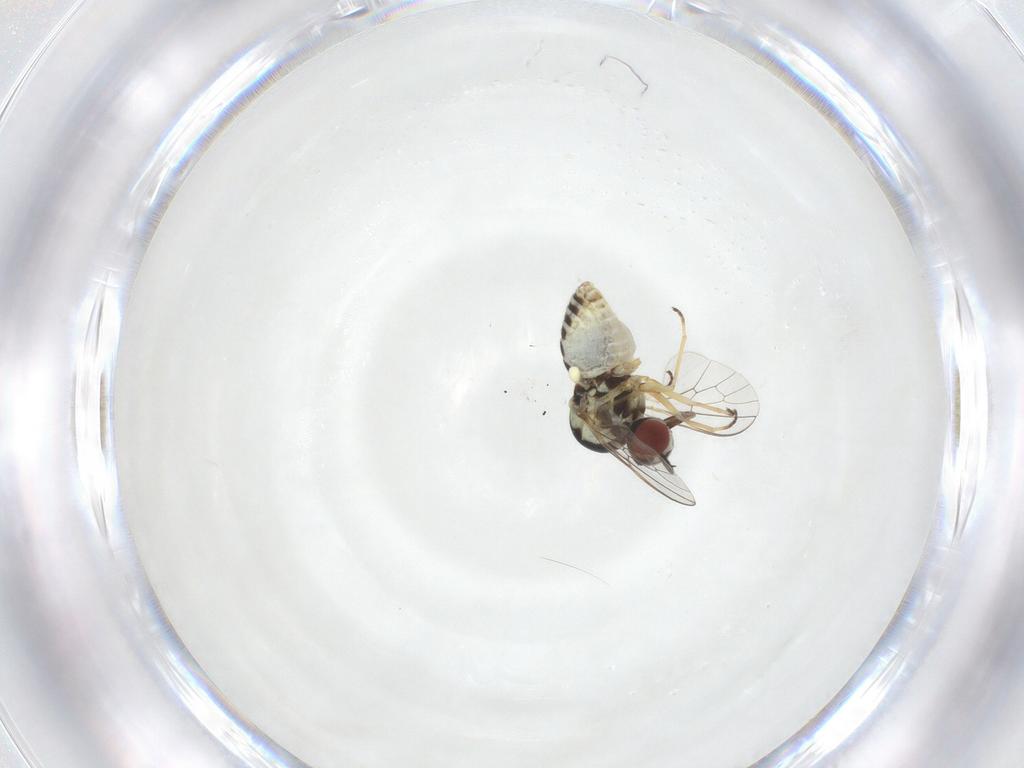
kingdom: Animalia
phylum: Arthropoda
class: Insecta
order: Diptera
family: Bombyliidae
